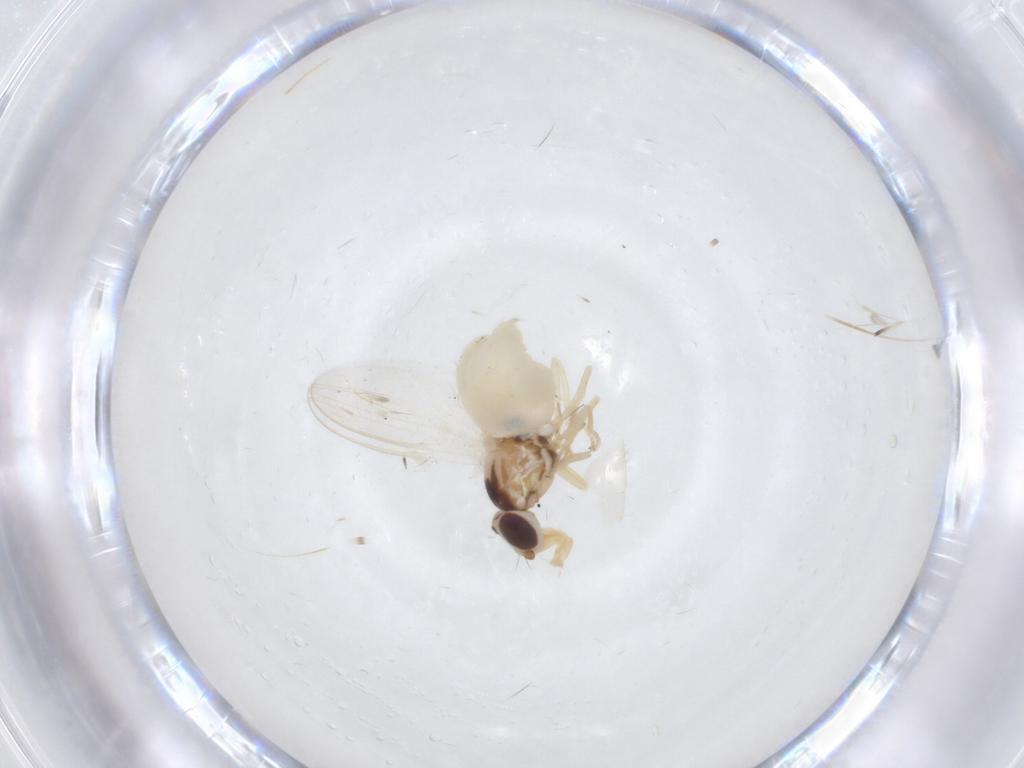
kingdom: Animalia
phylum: Arthropoda
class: Insecta
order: Diptera
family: Chloropidae
